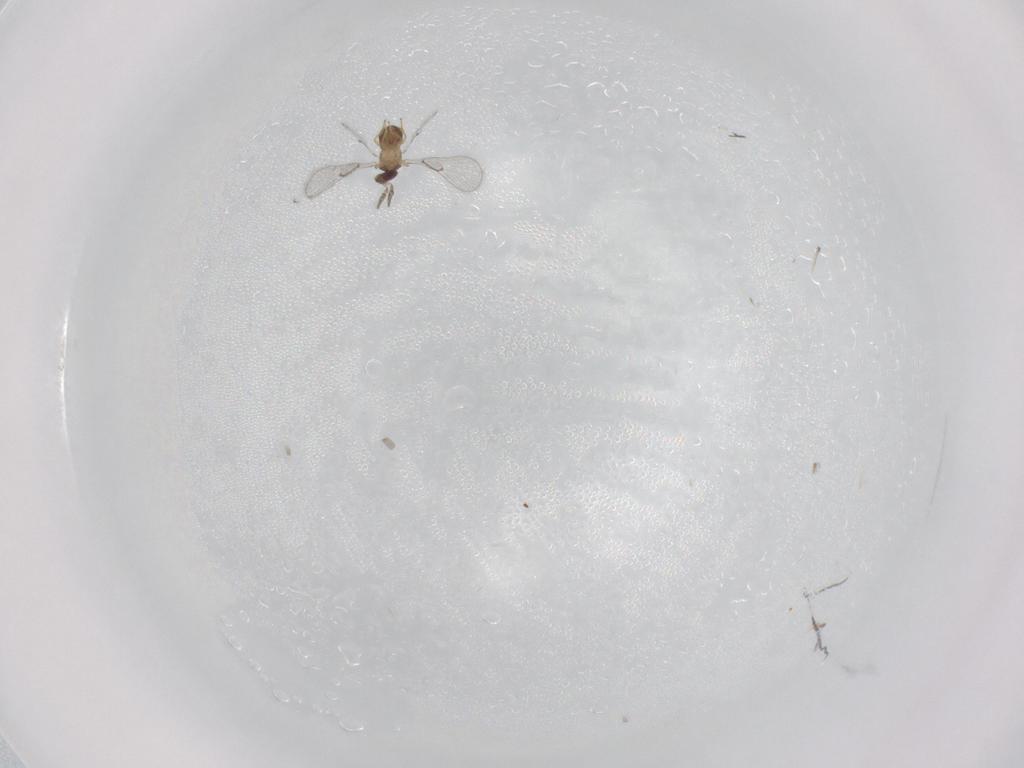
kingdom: Animalia
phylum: Arthropoda
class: Insecta
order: Hymenoptera
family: Trichogrammatidae
